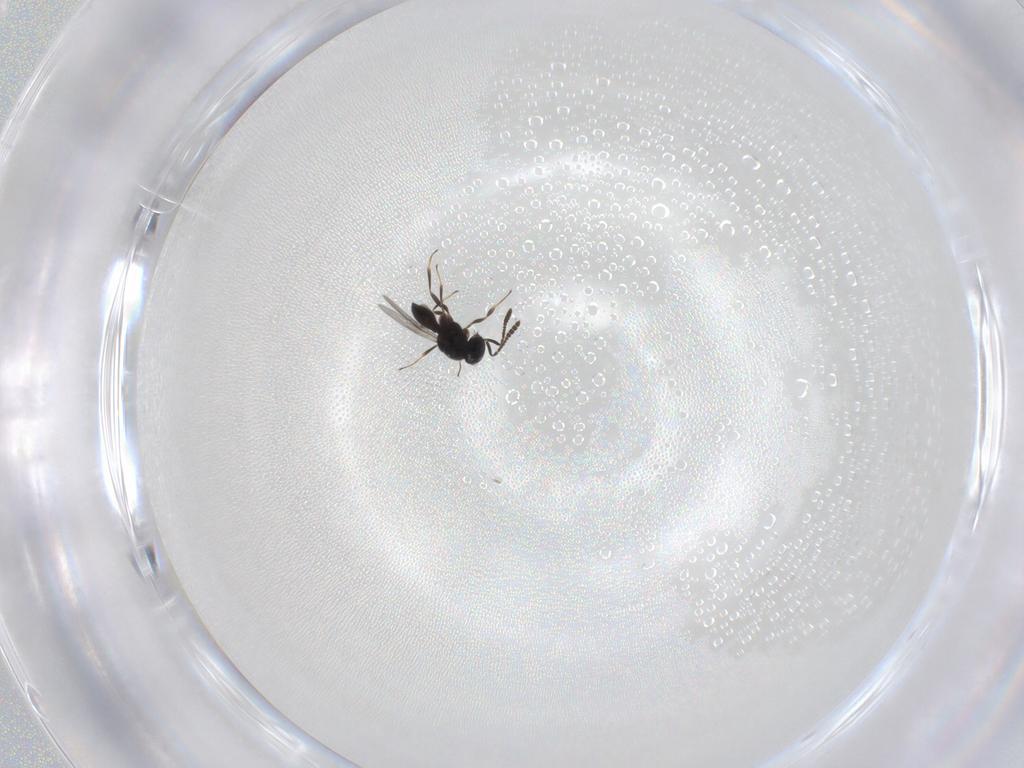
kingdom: Animalia
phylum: Arthropoda
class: Insecta
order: Hymenoptera
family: Scelionidae
